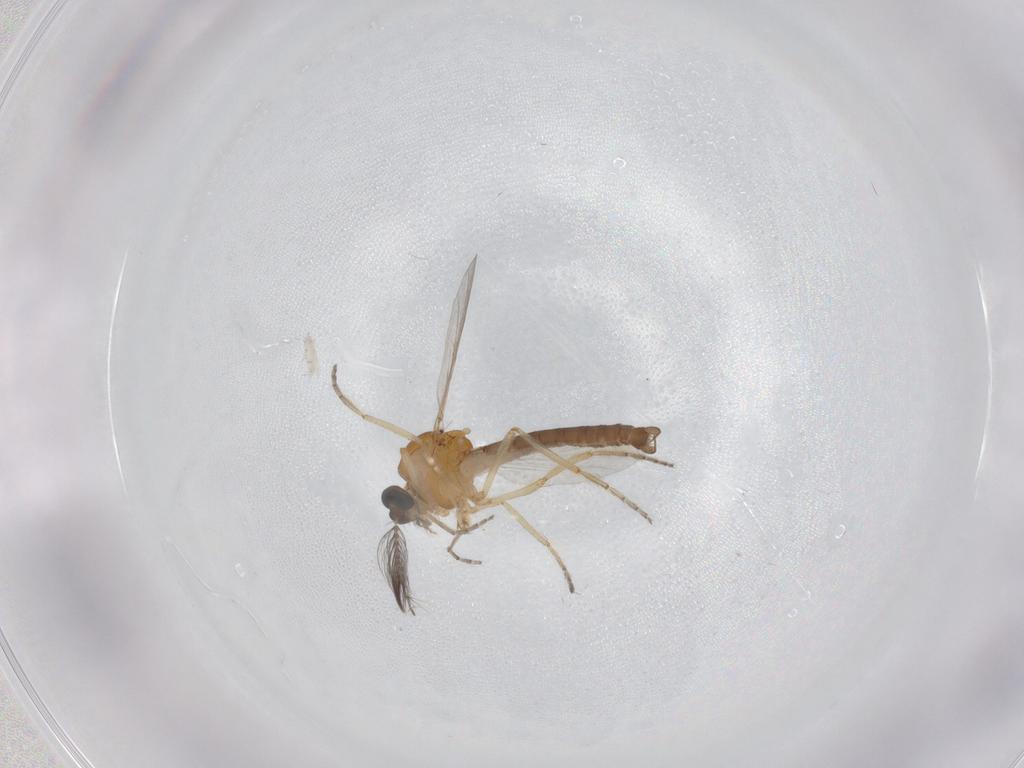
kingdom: Animalia
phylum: Arthropoda
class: Insecta
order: Diptera
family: Ceratopogonidae
